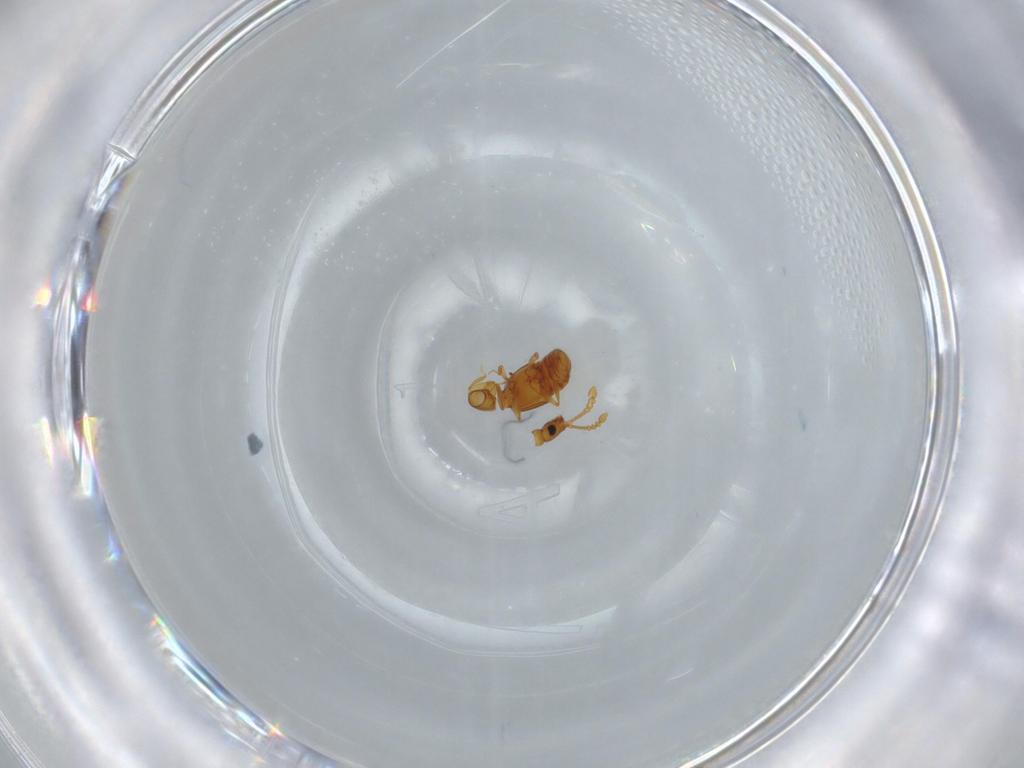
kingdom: Animalia
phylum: Arthropoda
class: Insecta
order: Coleoptera
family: Staphylinidae
